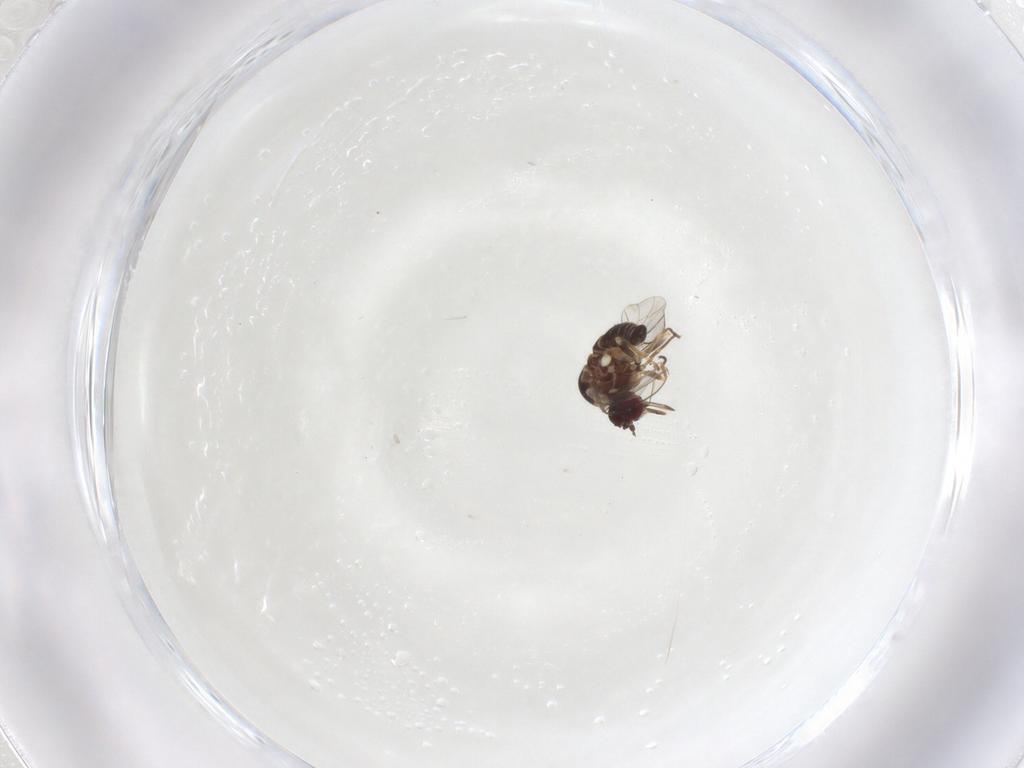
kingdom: Animalia
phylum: Arthropoda
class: Insecta
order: Diptera
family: Bombyliidae
